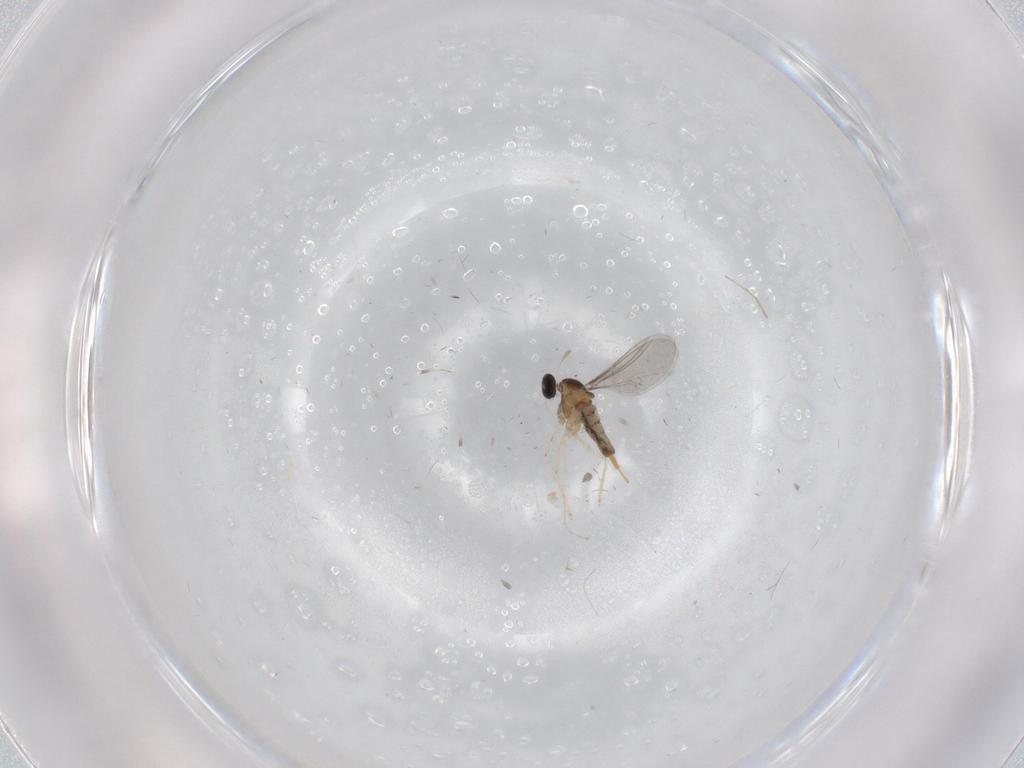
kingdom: Animalia
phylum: Arthropoda
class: Insecta
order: Diptera
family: Cecidomyiidae
